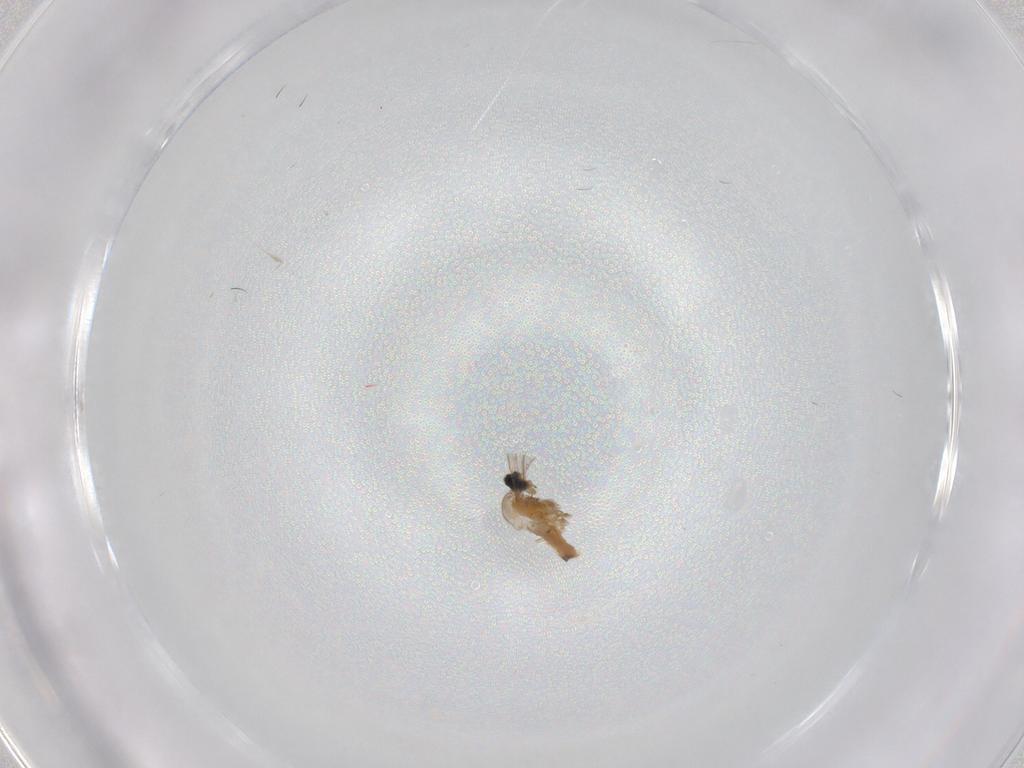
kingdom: Animalia
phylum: Arthropoda
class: Insecta
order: Diptera
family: Cecidomyiidae
